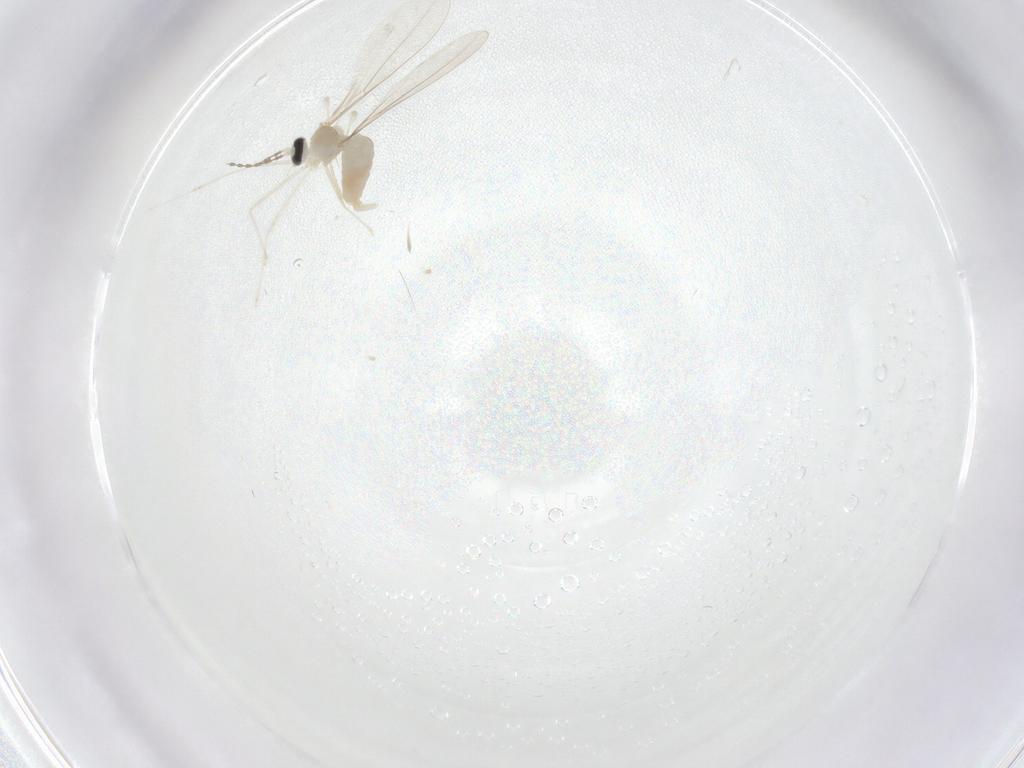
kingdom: Animalia
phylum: Arthropoda
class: Insecta
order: Diptera
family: Cecidomyiidae
